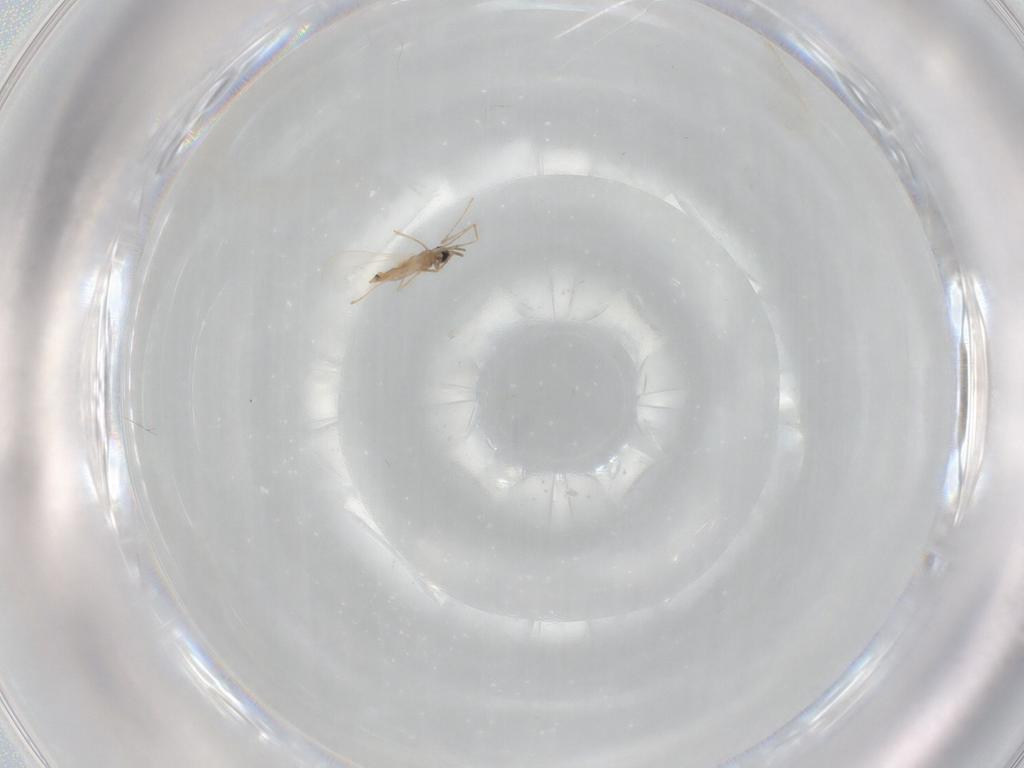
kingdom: Animalia
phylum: Arthropoda
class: Insecta
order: Diptera
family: Cecidomyiidae
